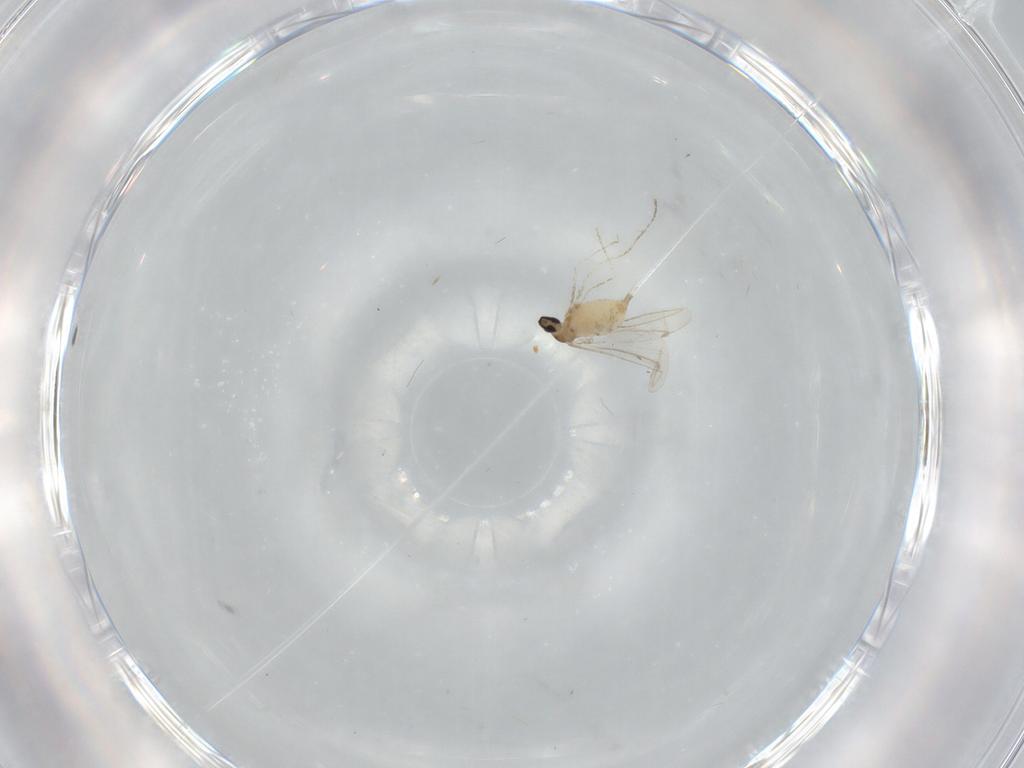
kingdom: Animalia
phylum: Arthropoda
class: Insecta
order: Diptera
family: Cecidomyiidae
